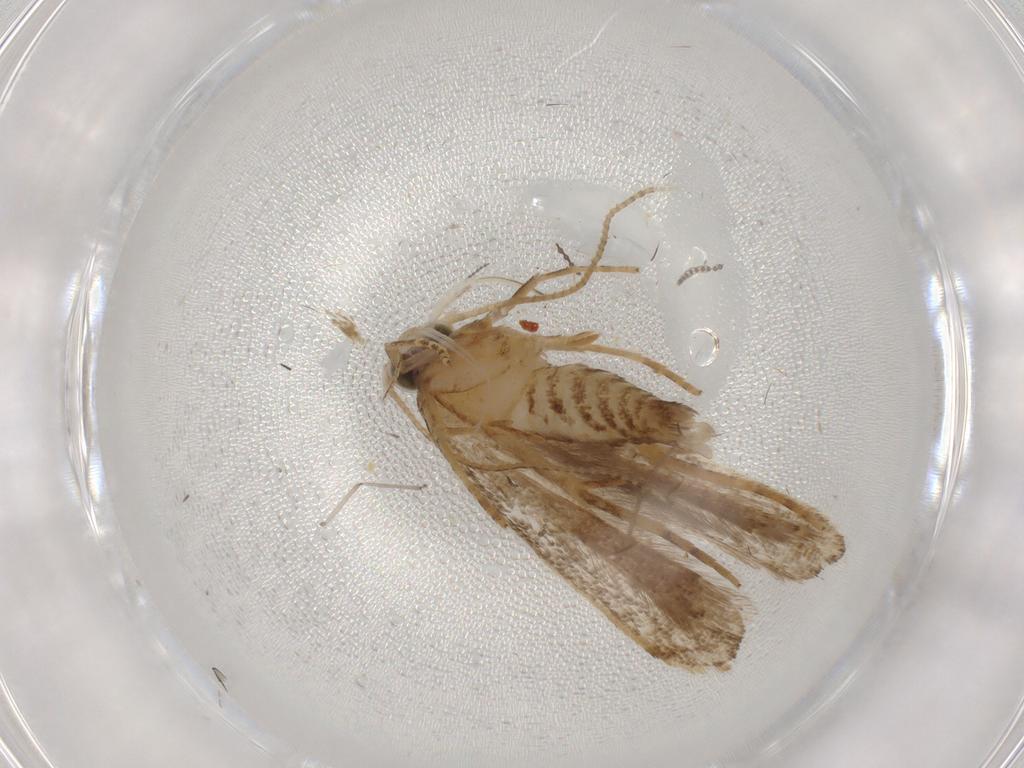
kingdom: Animalia
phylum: Arthropoda
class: Insecta
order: Lepidoptera
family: Gelechiidae
